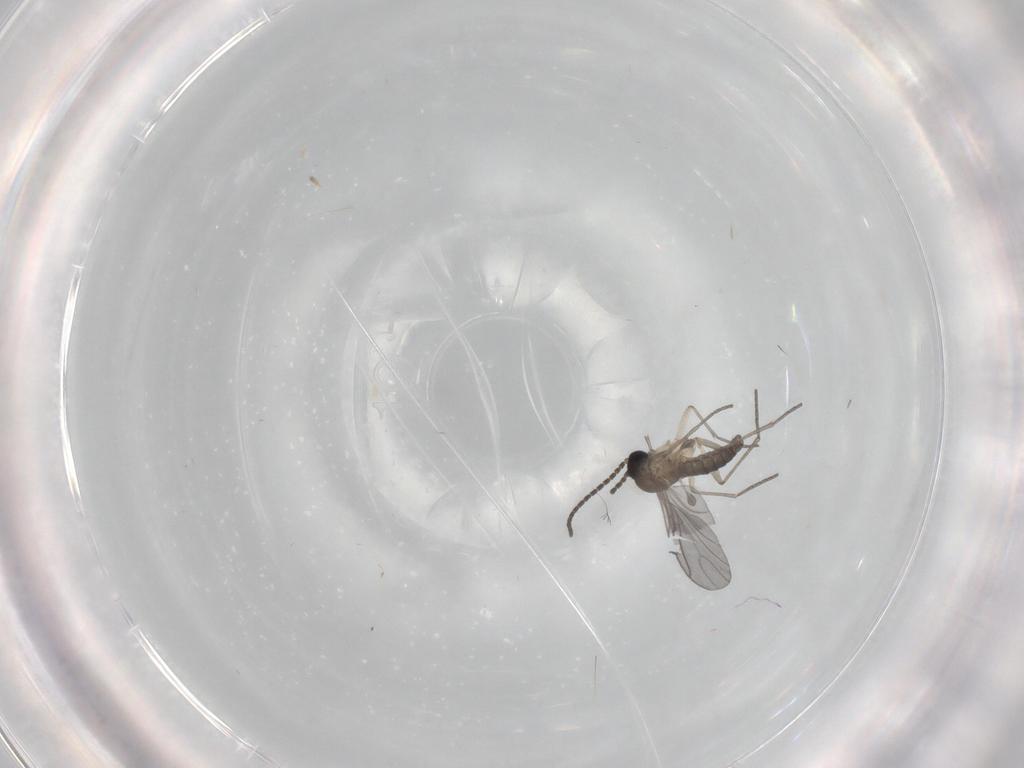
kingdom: Animalia
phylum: Arthropoda
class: Insecta
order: Diptera
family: Sciaridae
